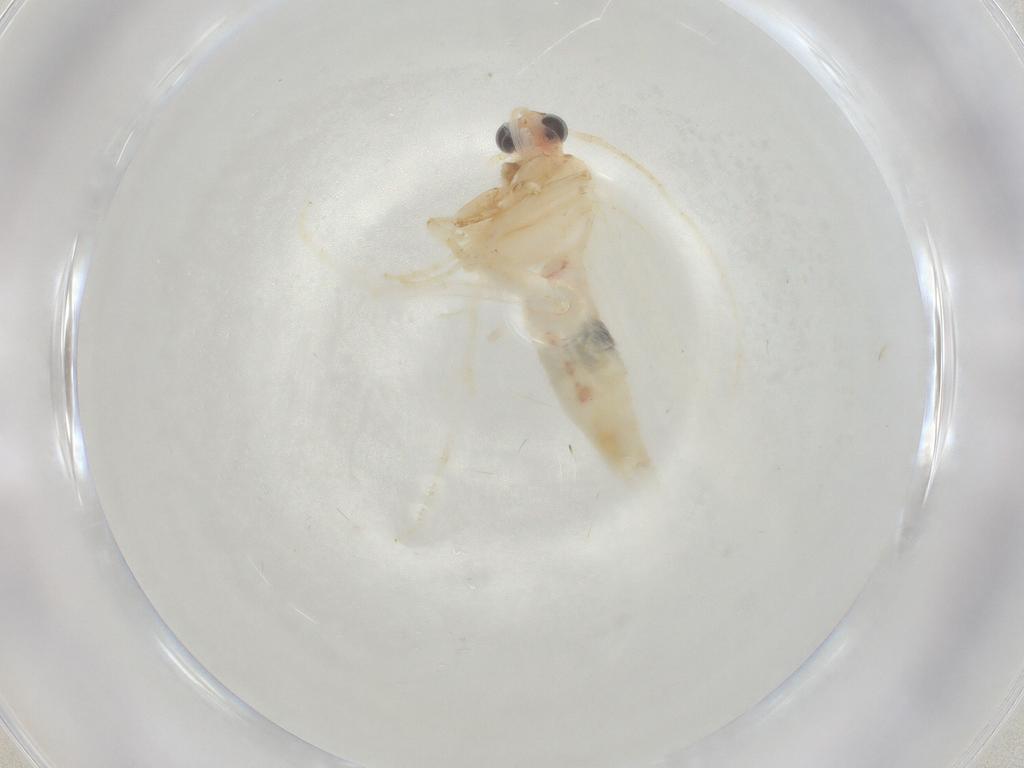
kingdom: Animalia
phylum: Arthropoda
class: Insecta
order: Lepidoptera
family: Gelechiidae
